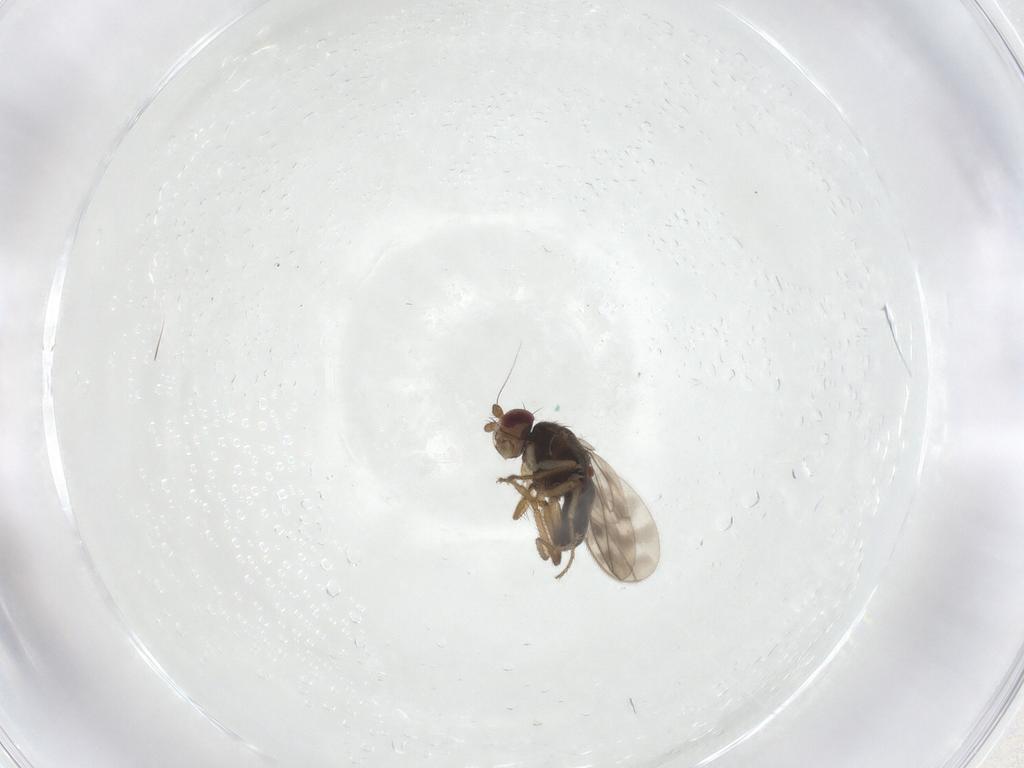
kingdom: Animalia
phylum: Arthropoda
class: Insecta
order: Diptera
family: Sphaeroceridae
